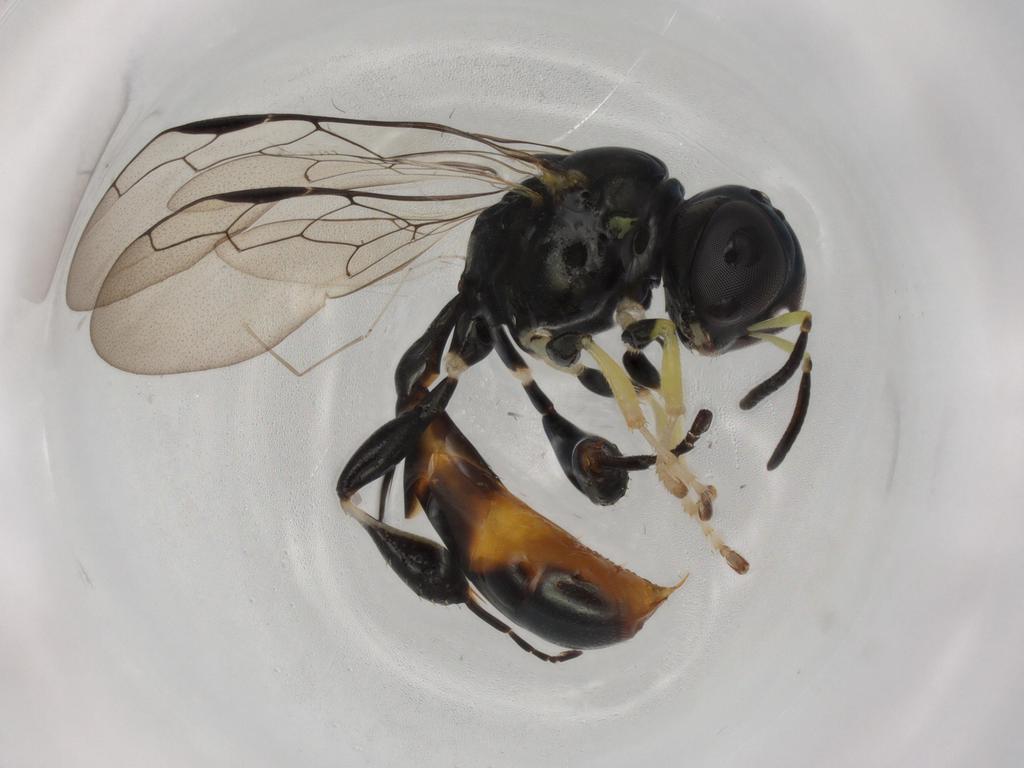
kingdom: Animalia
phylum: Arthropoda
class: Insecta
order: Hymenoptera
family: Crabronidae
